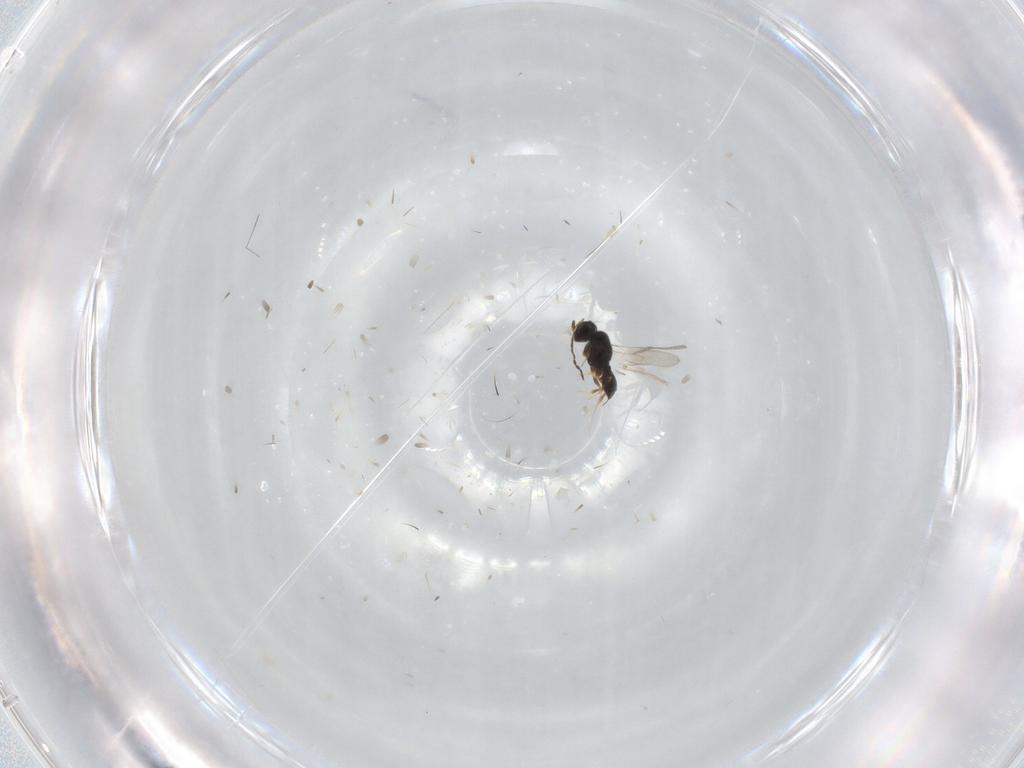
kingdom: Animalia
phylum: Arthropoda
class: Insecta
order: Hymenoptera
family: Scelionidae
